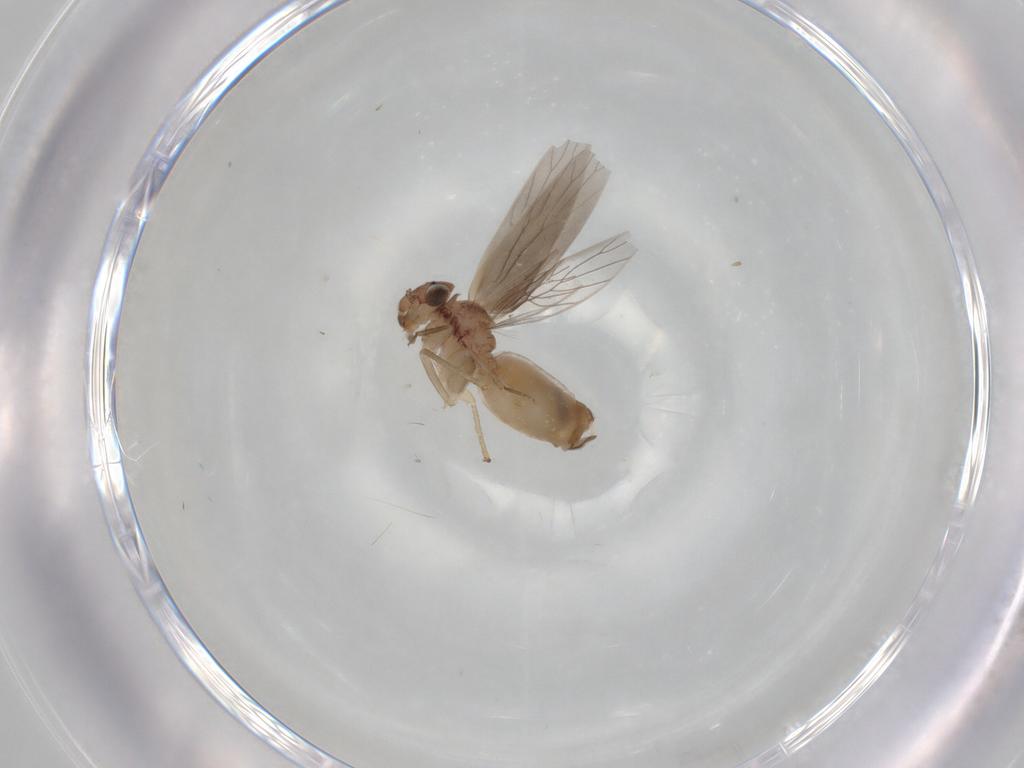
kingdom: Animalia
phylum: Arthropoda
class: Insecta
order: Psocodea
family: Lepidopsocidae
